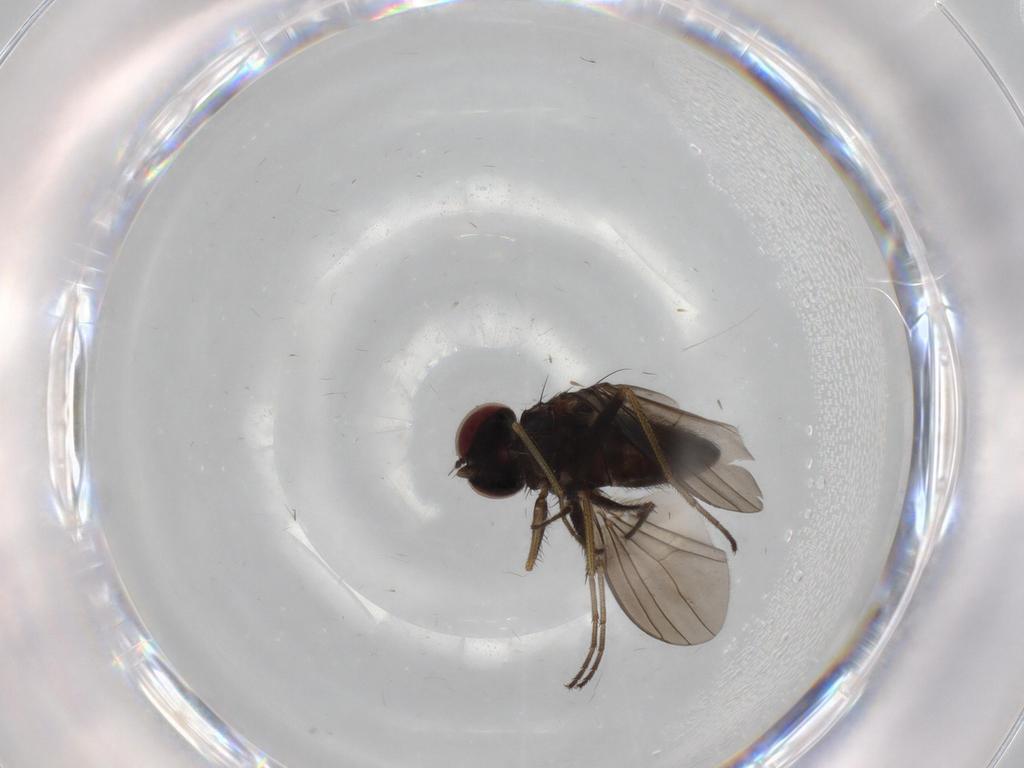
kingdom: Animalia
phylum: Arthropoda
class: Insecta
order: Diptera
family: Dolichopodidae
